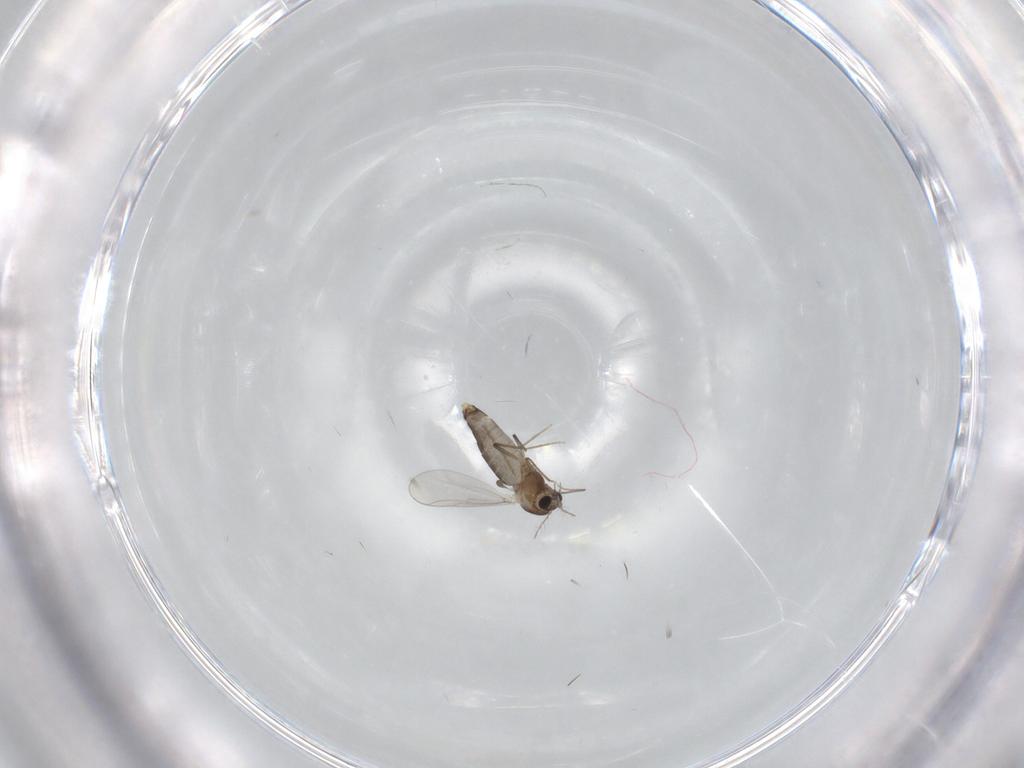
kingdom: Animalia
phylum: Arthropoda
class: Insecta
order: Diptera
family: Chironomidae
